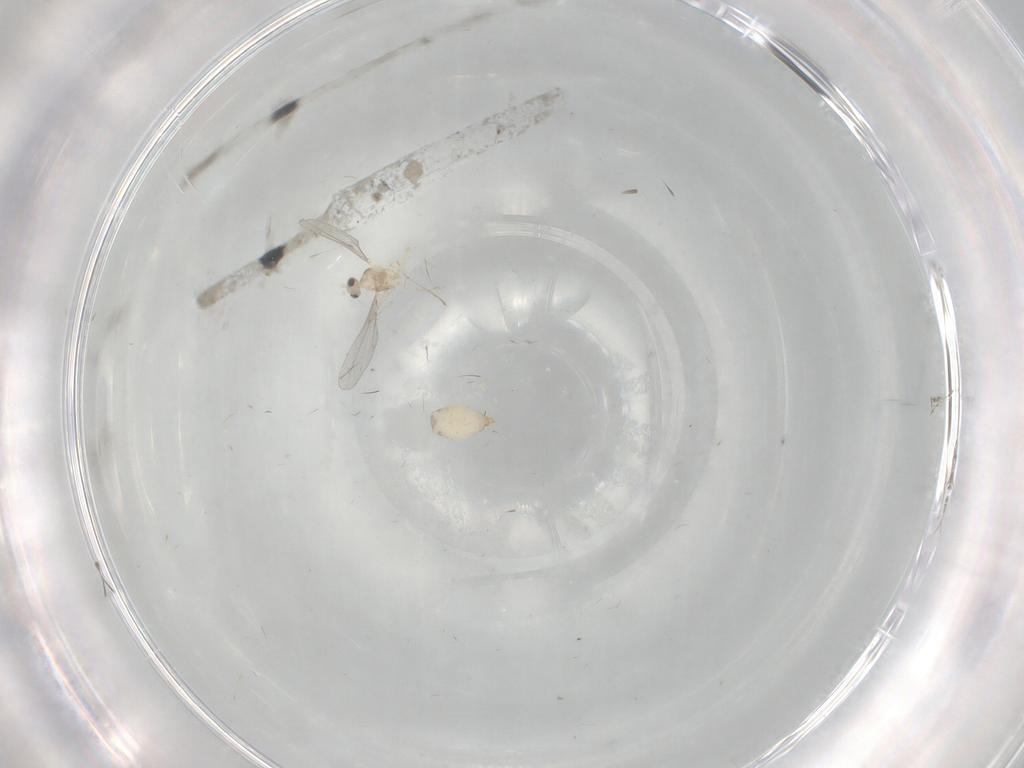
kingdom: Animalia
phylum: Arthropoda
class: Insecta
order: Diptera
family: Cecidomyiidae
